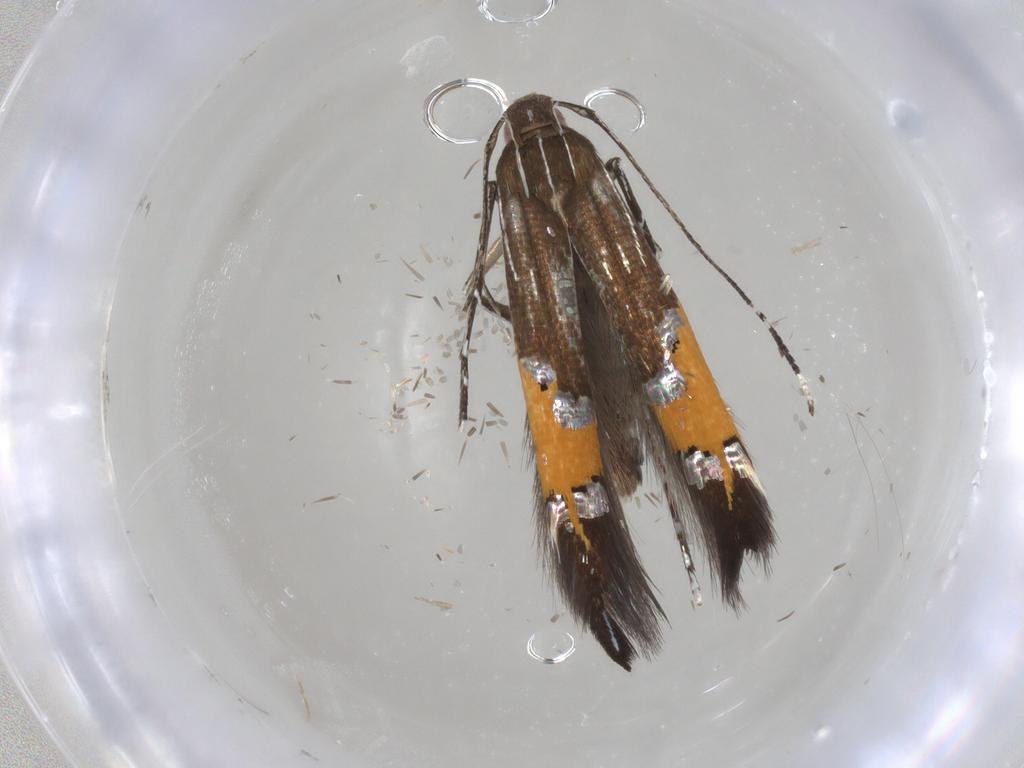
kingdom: Animalia
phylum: Arthropoda
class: Insecta
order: Lepidoptera
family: Cosmopterigidae
